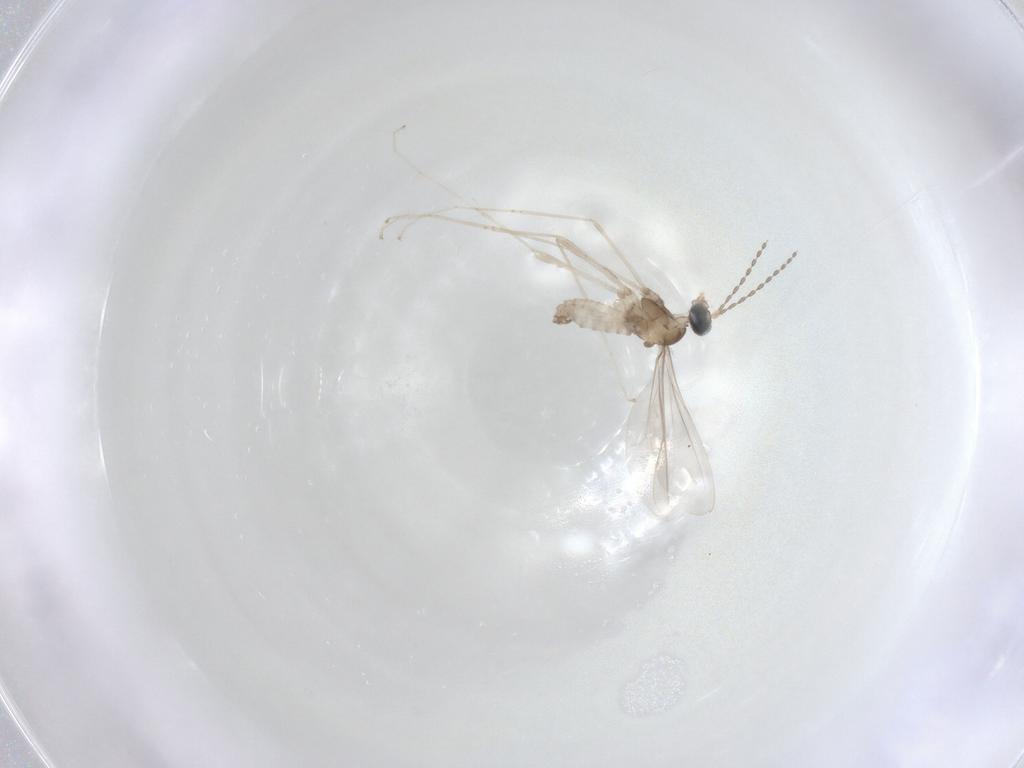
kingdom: Animalia
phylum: Arthropoda
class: Insecta
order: Diptera
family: Cecidomyiidae
